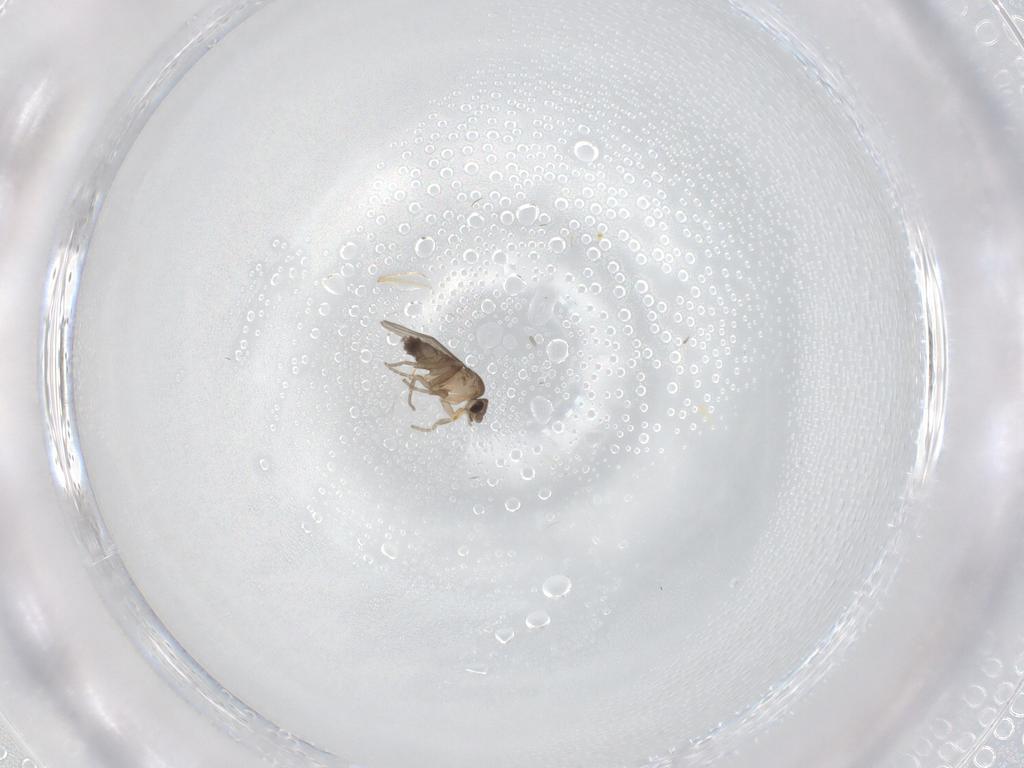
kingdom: Animalia
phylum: Arthropoda
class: Insecta
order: Diptera
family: Phoridae
